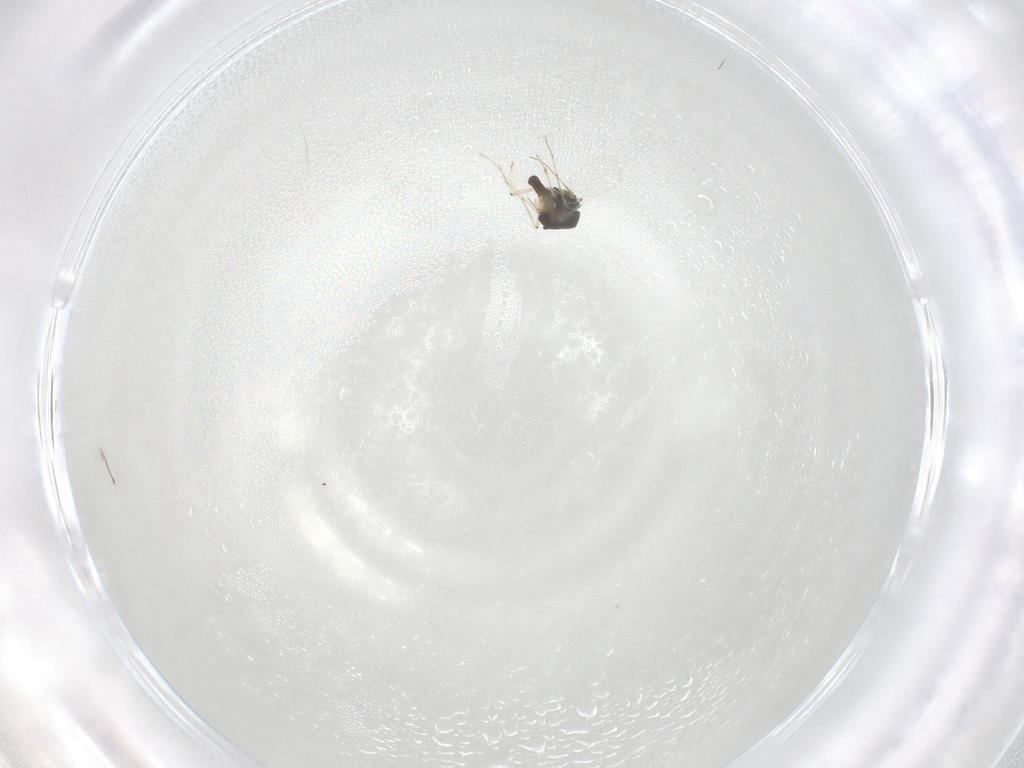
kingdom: Animalia
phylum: Arthropoda
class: Insecta
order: Diptera
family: Chironomidae
